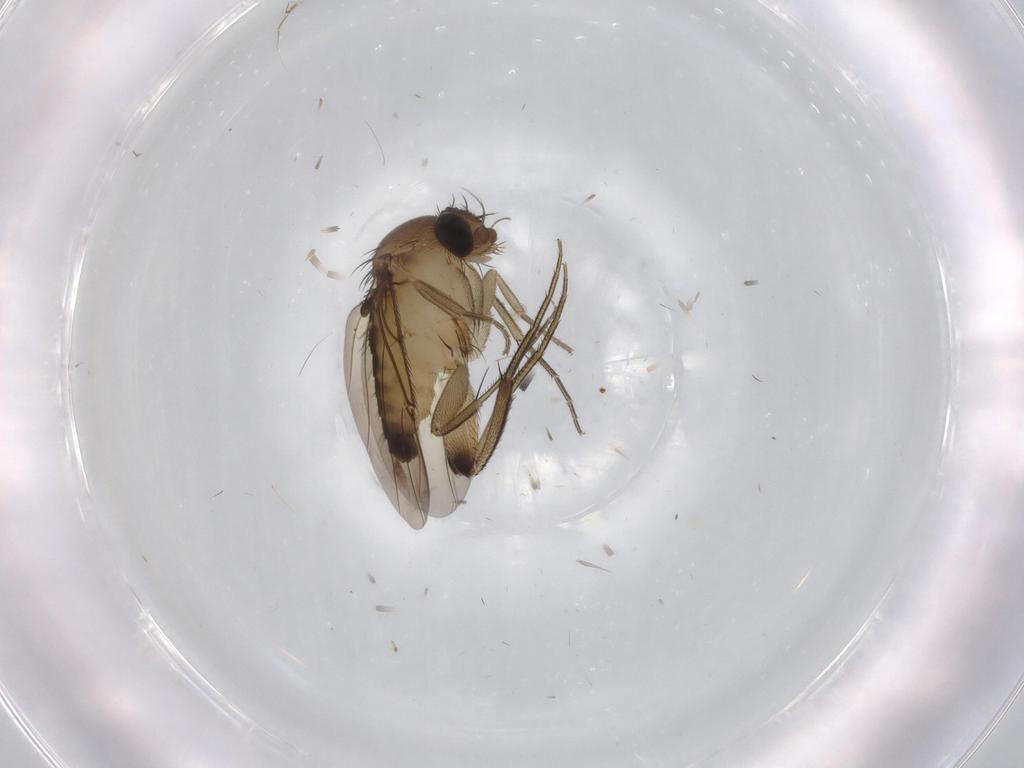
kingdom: Animalia
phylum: Arthropoda
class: Insecta
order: Diptera
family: Phoridae
